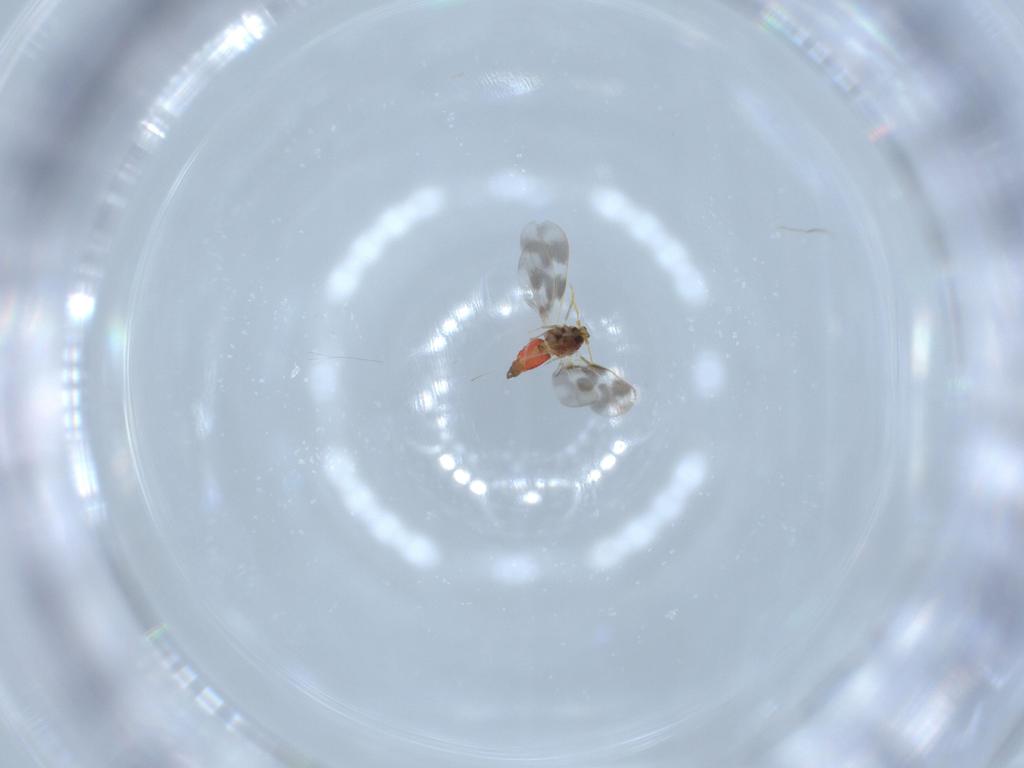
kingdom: Animalia
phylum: Arthropoda
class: Insecta
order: Hemiptera
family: Aleyrodidae
